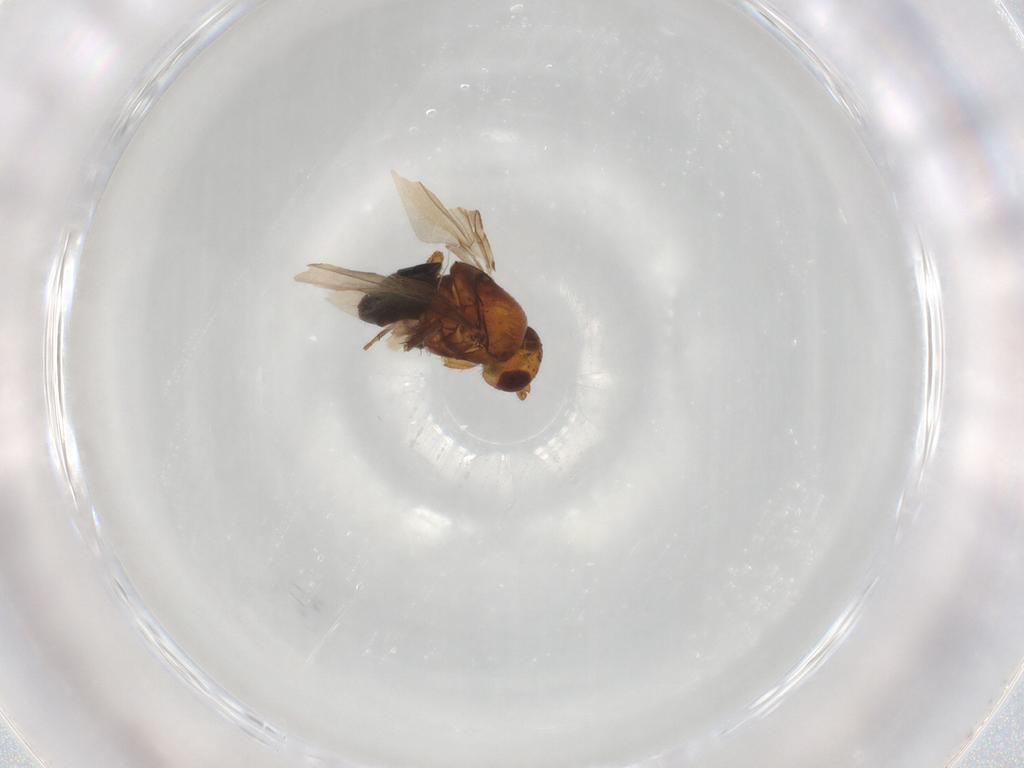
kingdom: Animalia
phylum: Arthropoda
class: Insecta
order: Diptera
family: Sphaeroceridae
